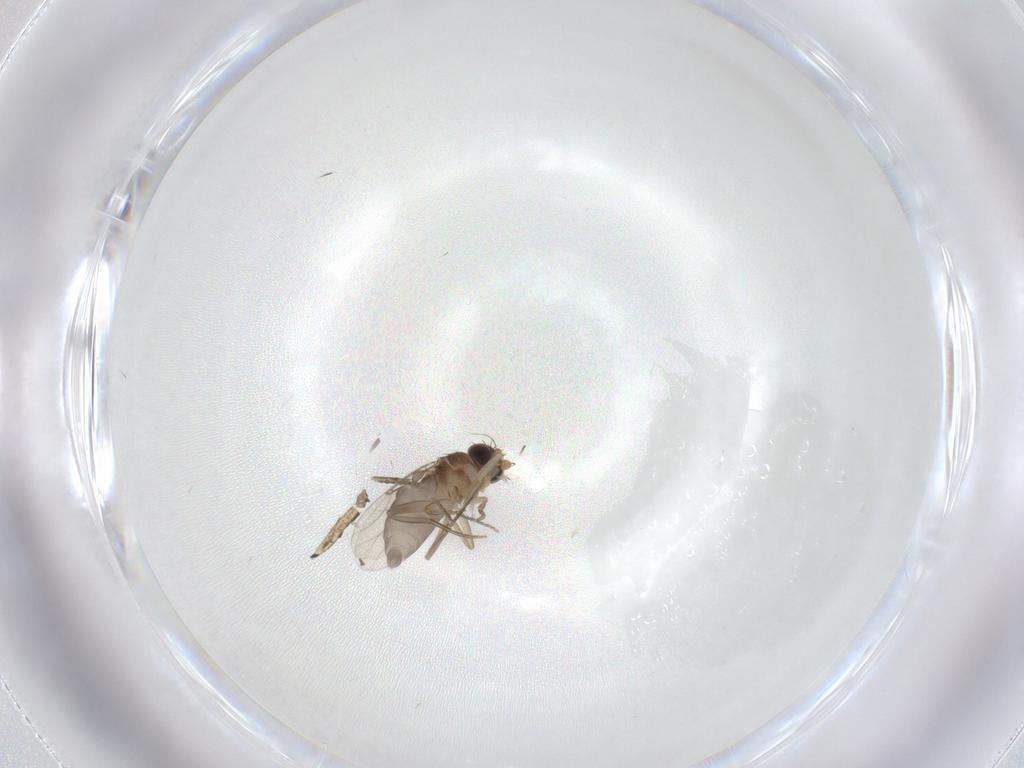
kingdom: Animalia
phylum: Arthropoda
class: Insecta
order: Diptera
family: Phoridae
